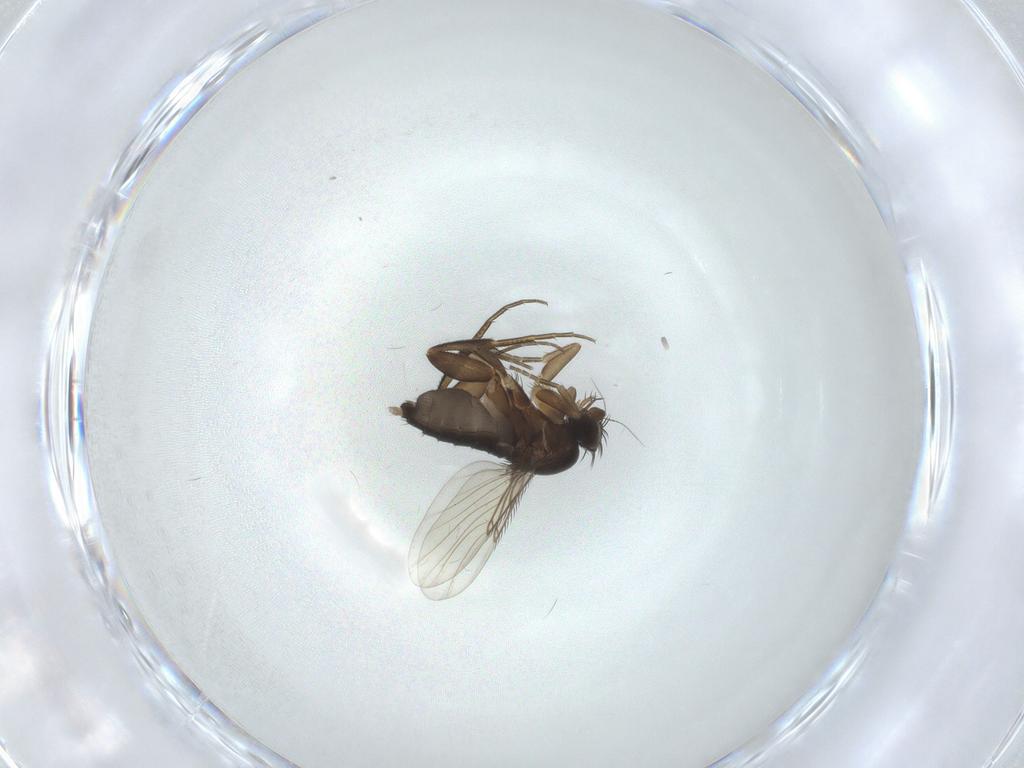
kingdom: Animalia
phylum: Arthropoda
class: Insecta
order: Diptera
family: Phoridae
